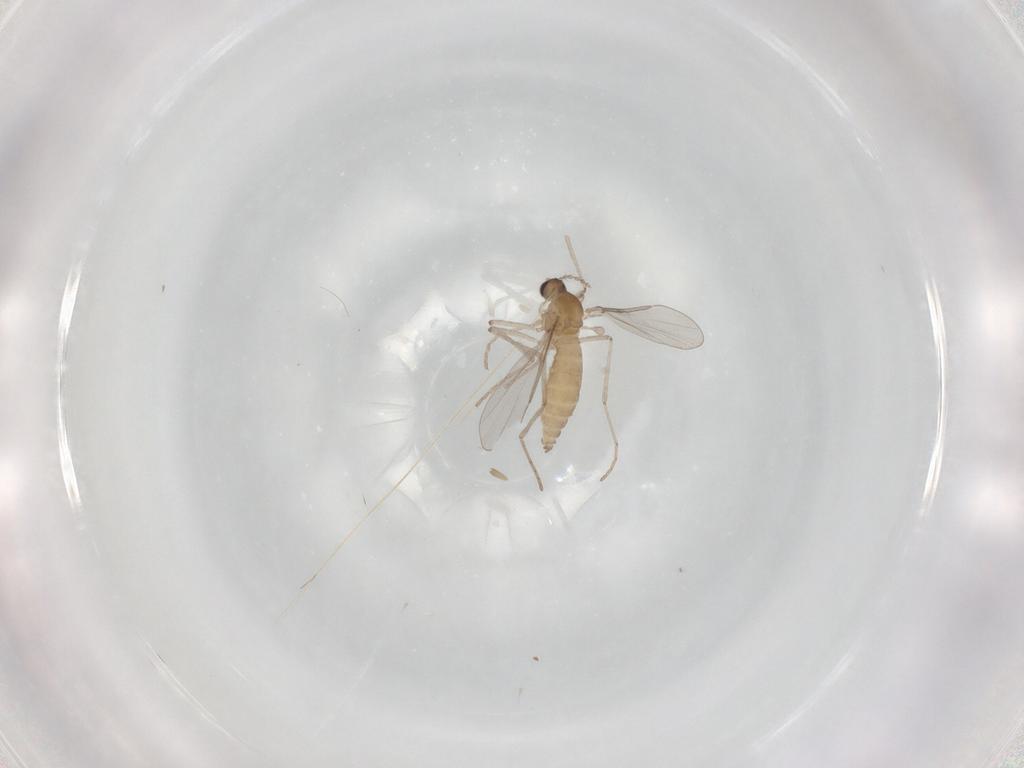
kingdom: Animalia
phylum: Arthropoda
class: Insecta
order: Diptera
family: Cecidomyiidae
